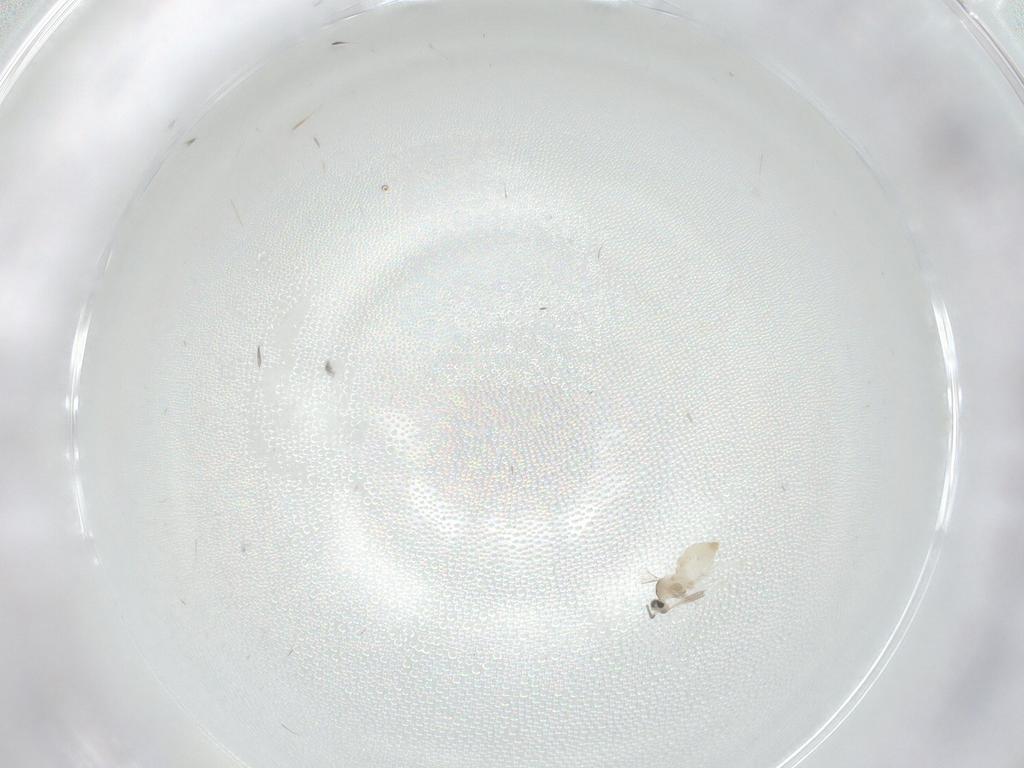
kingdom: Animalia
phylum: Arthropoda
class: Insecta
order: Diptera
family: Cecidomyiidae
